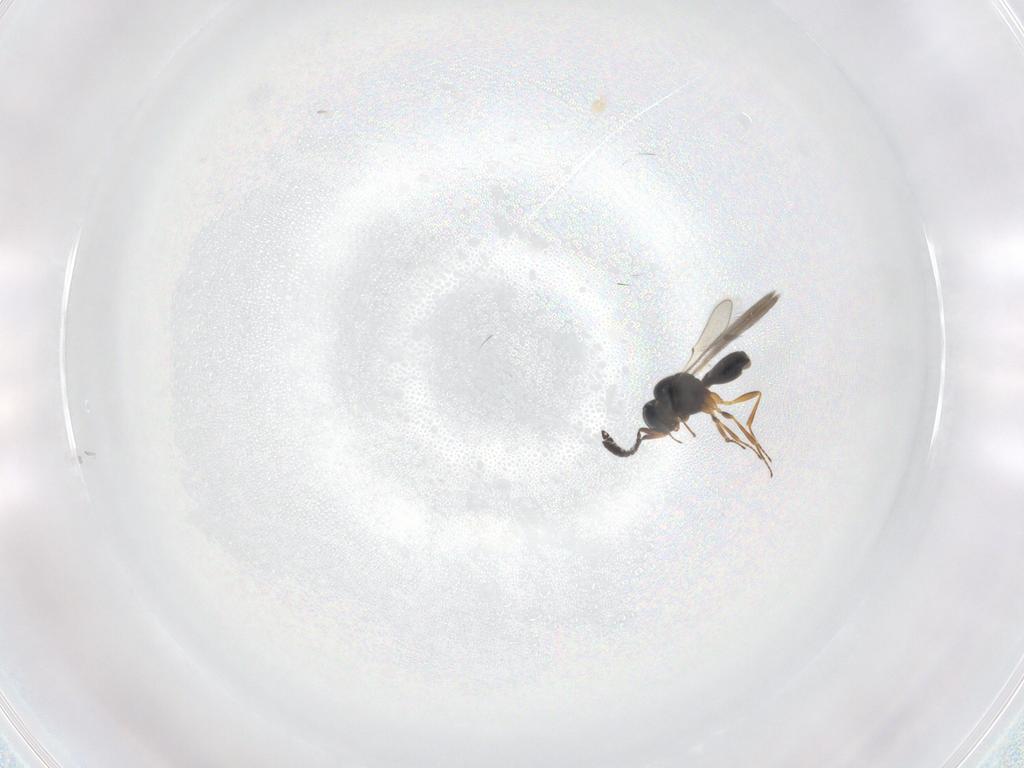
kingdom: Animalia
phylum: Arthropoda
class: Insecta
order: Hymenoptera
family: Scelionidae
